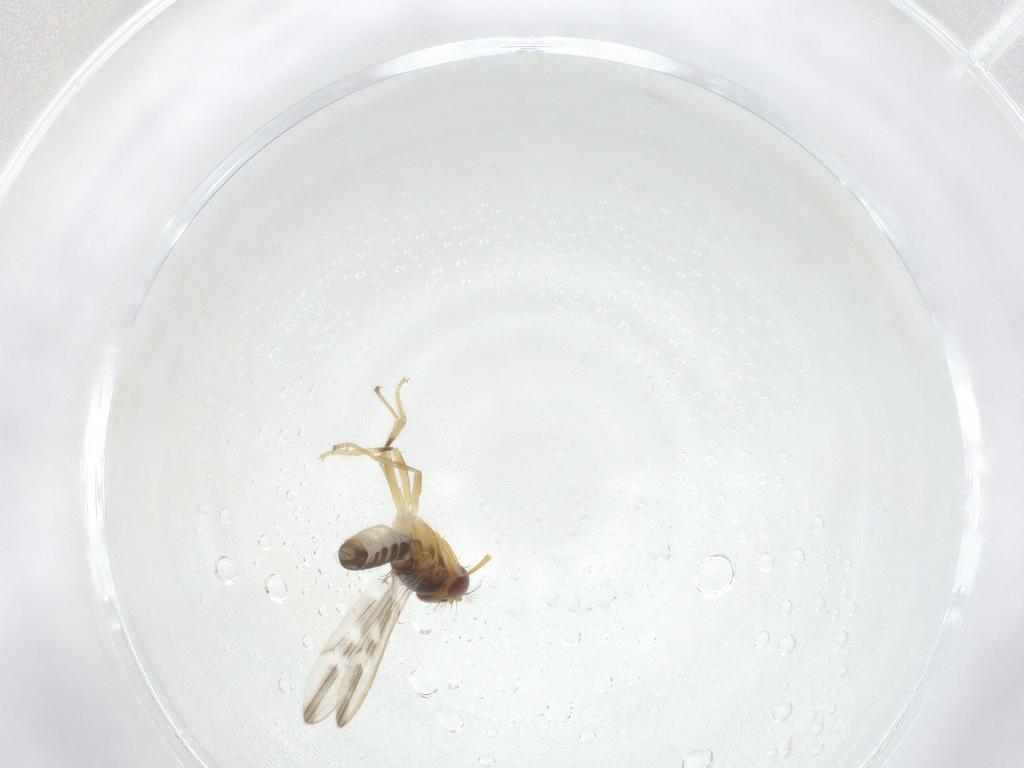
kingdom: Animalia
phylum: Arthropoda
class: Insecta
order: Diptera
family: Periscelididae
